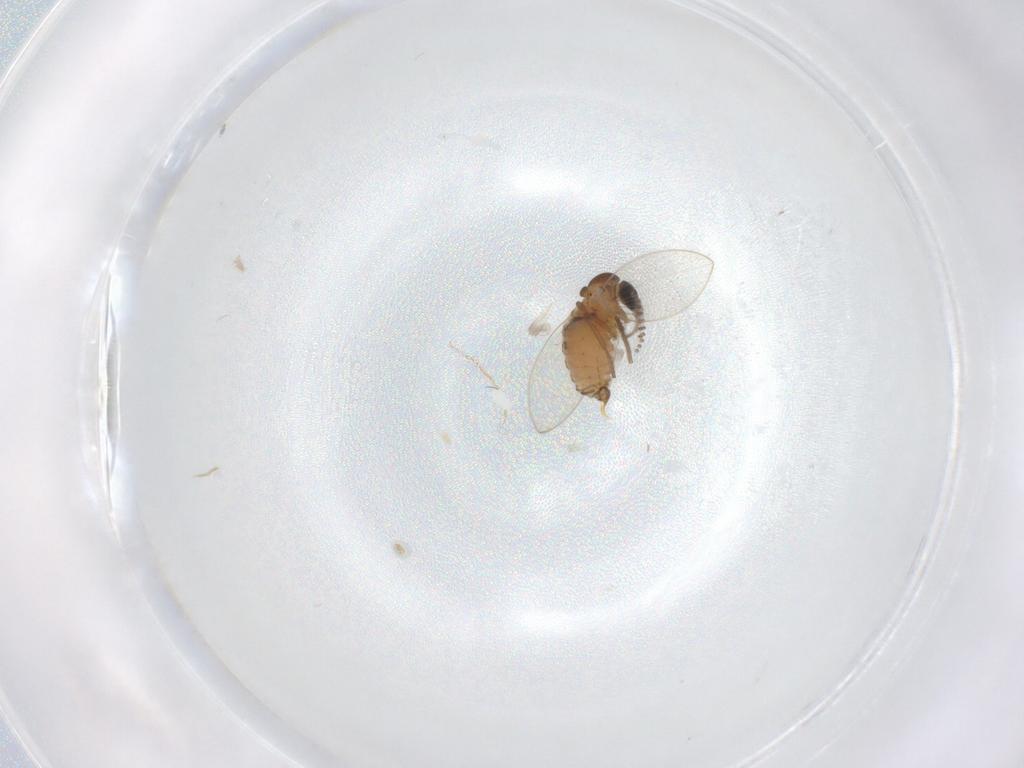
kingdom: Animalia
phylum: Arthropoda
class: Insecta
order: Diptera
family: Psychodidae
